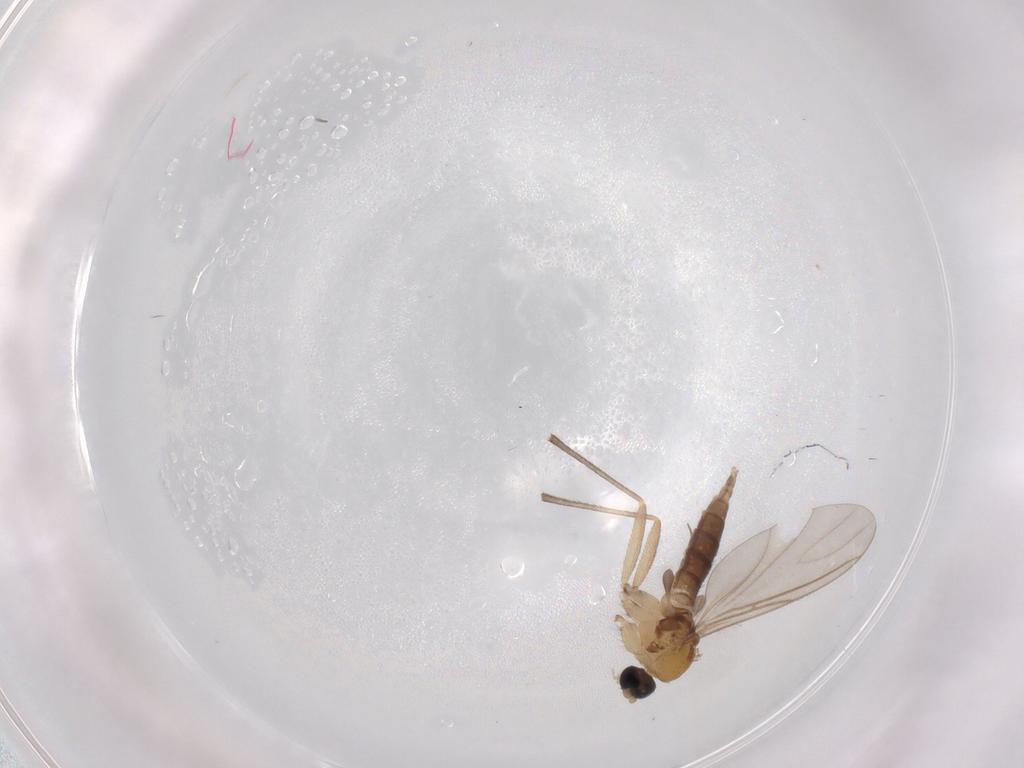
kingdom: Animalia
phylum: Arthropoda
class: Insecta
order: Diptera
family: Sciaridae
